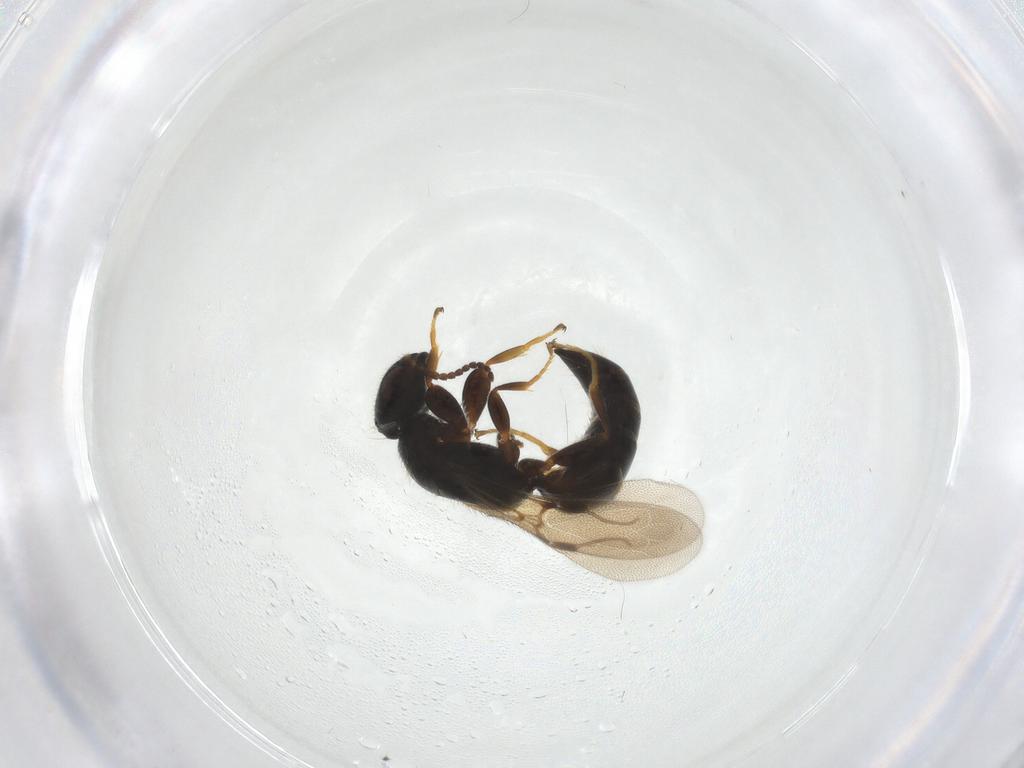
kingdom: Animalia
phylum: Arthropoda
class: Insecta
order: Hymenoptera
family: Bethylidae
